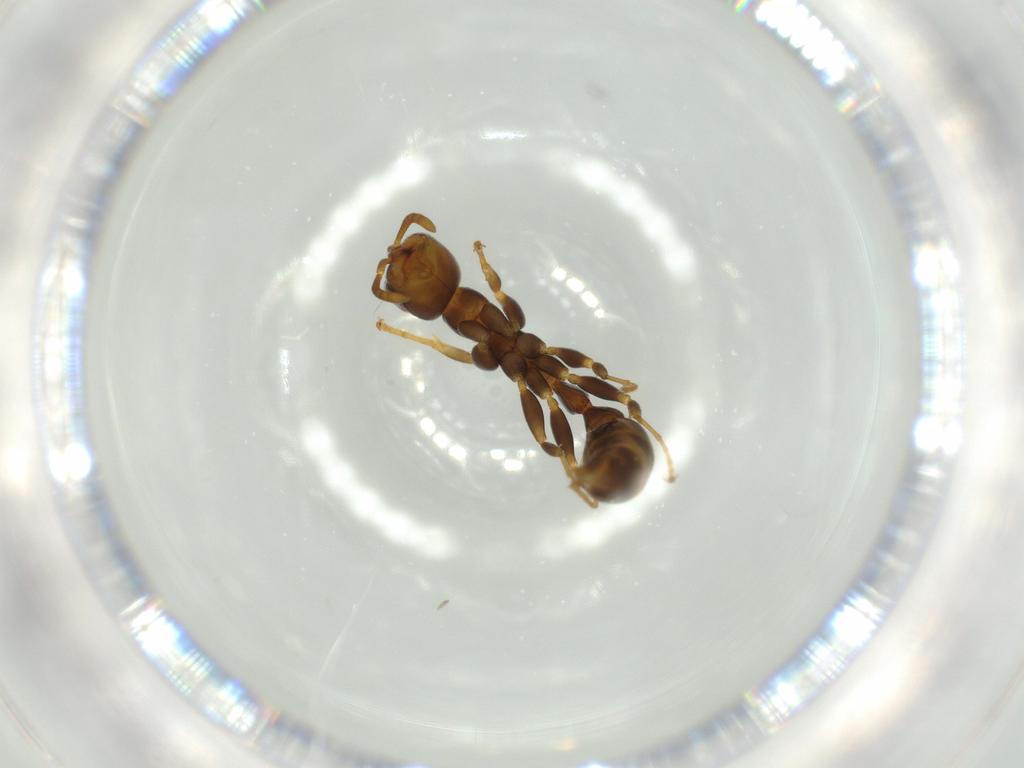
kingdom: Animalia
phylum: Arthropoda
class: Insecta
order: Hymenoptera
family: Formicidae
